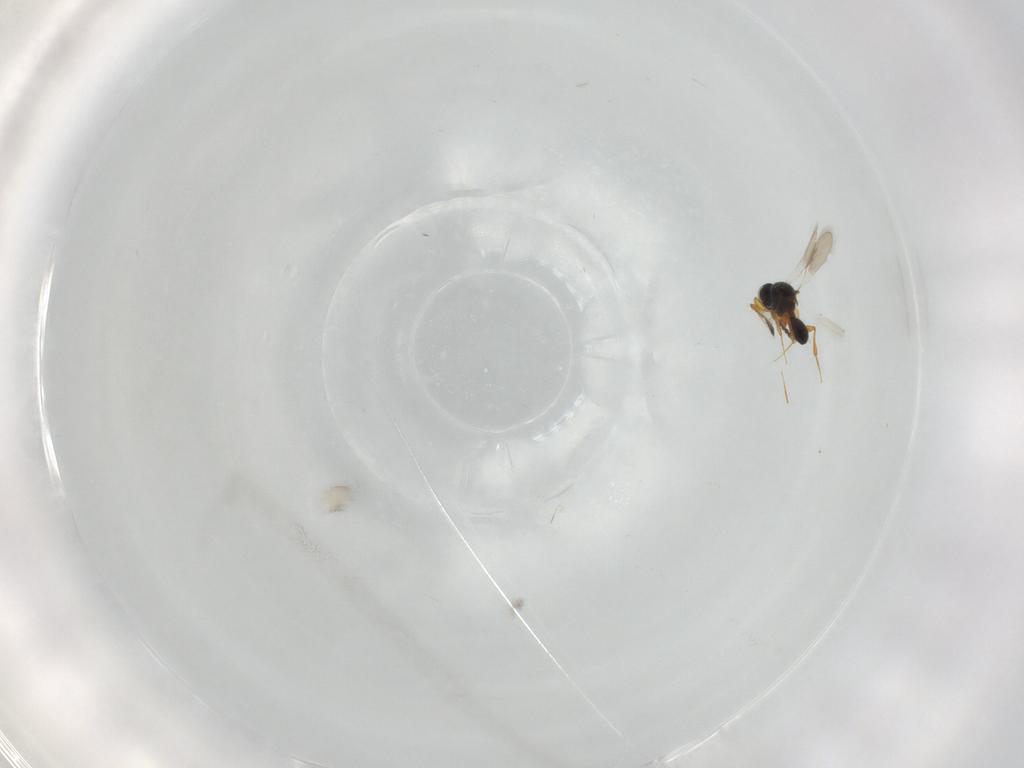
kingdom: Animalia
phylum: Arthropoda
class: Insecta
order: Hymenoptera
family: Platygastridae
